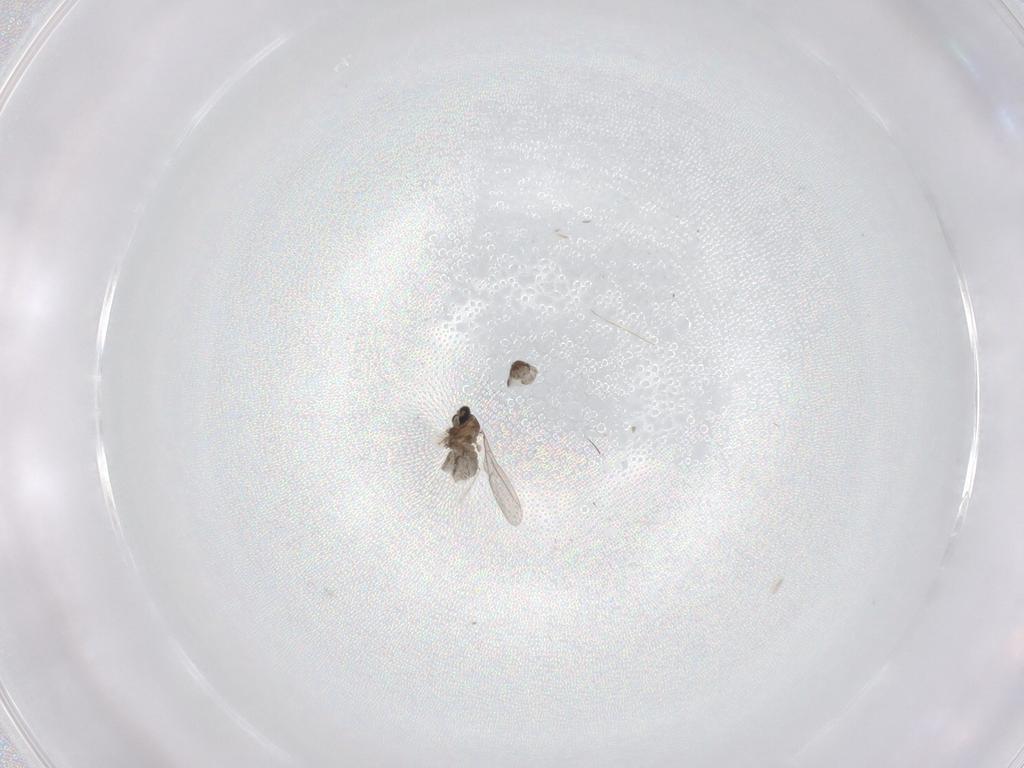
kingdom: Animalia
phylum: Arthropoda
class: Insecta
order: Diptera
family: Cecidomyiidae
